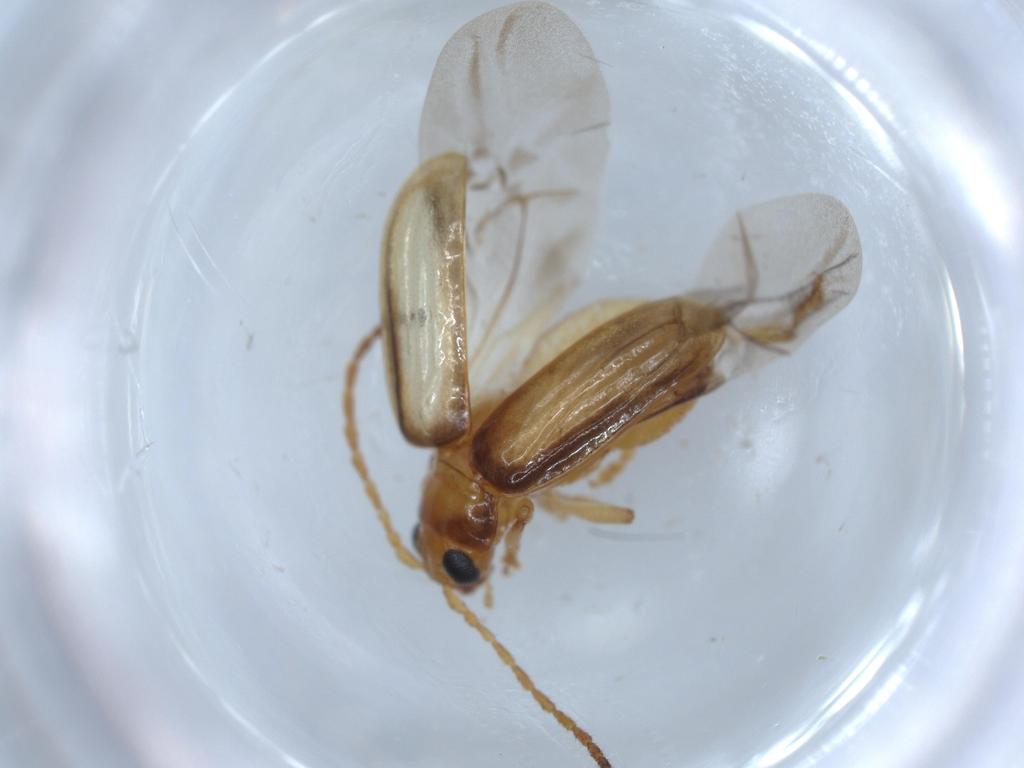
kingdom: Animalia
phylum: Arthropoda
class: Insecta
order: Coleoptera
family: Chrysomelidae
